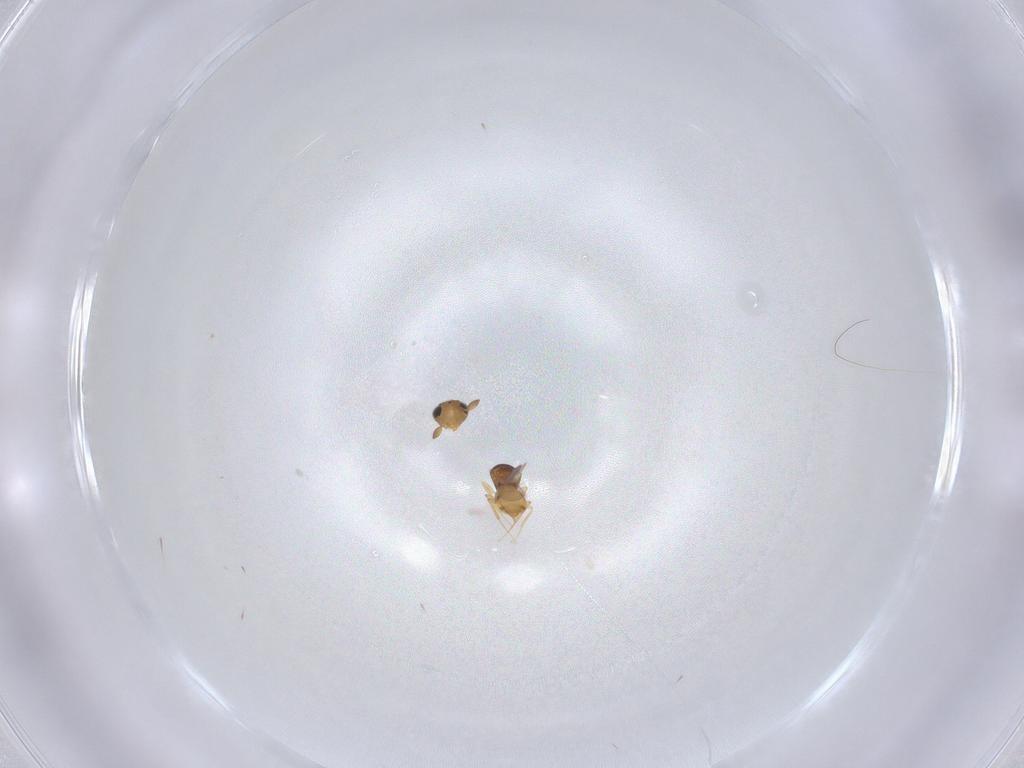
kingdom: Animalia
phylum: Arthropoda
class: Insecta
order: Hymenoptera
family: Scelionidae
